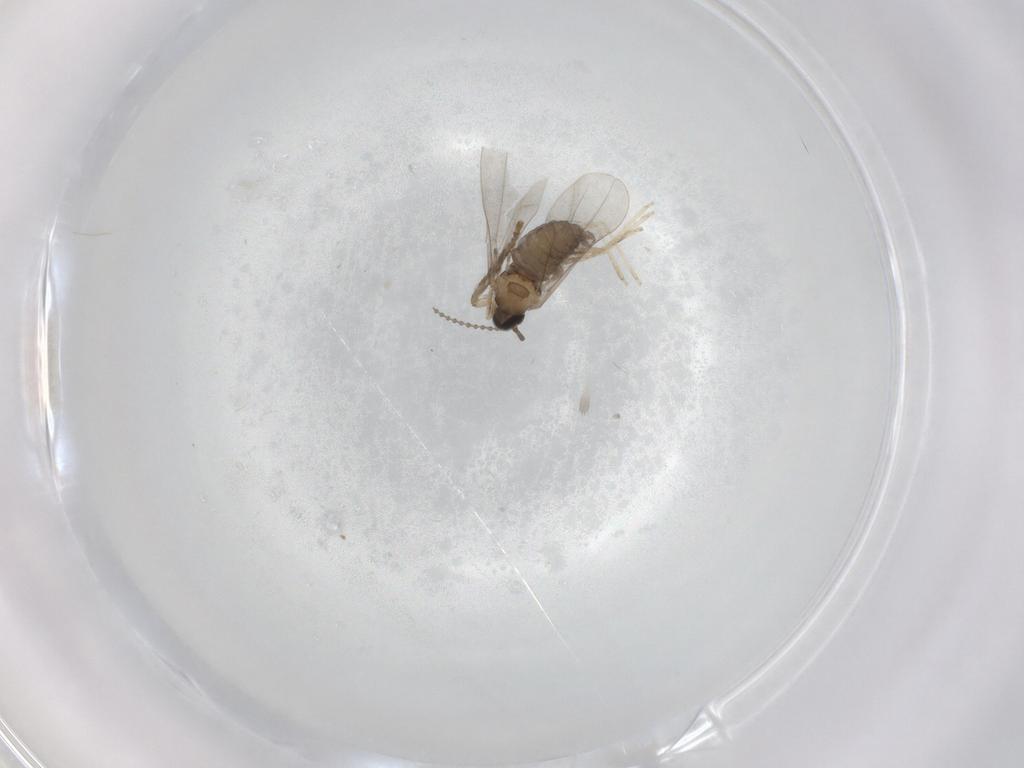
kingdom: Animalia
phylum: Arthropoda
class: Insecta
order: Diptera
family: Cecidomyiidae
